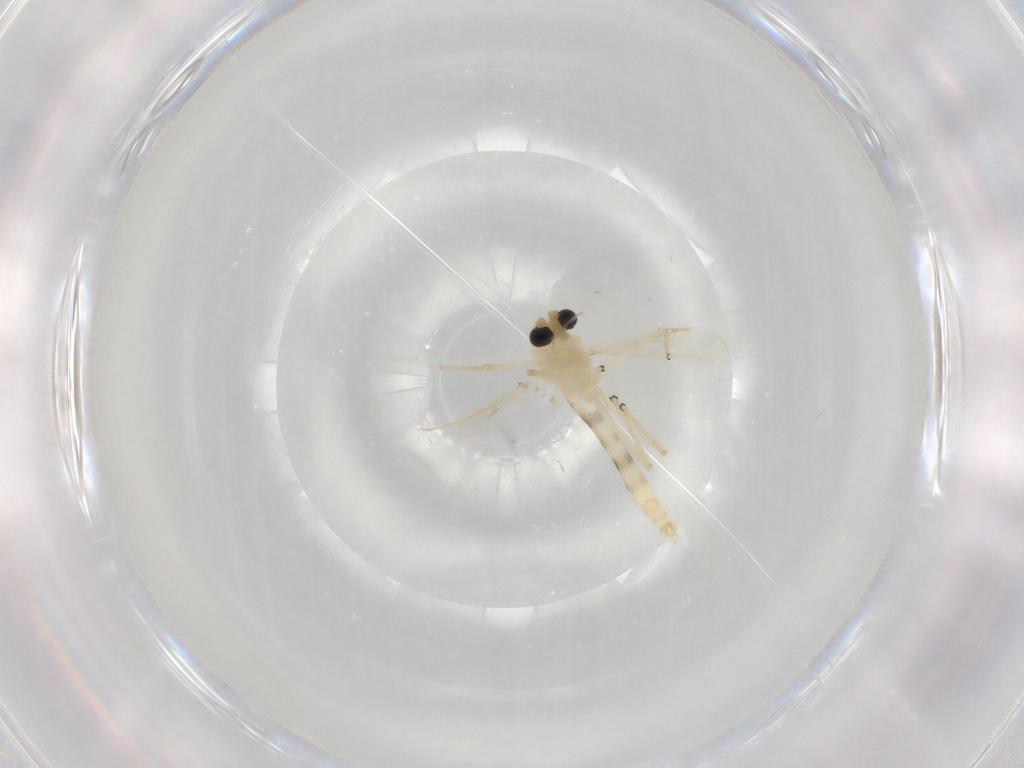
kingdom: Animalia
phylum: Arthropoda
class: Insecta
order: Diptera
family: Chironomidae
